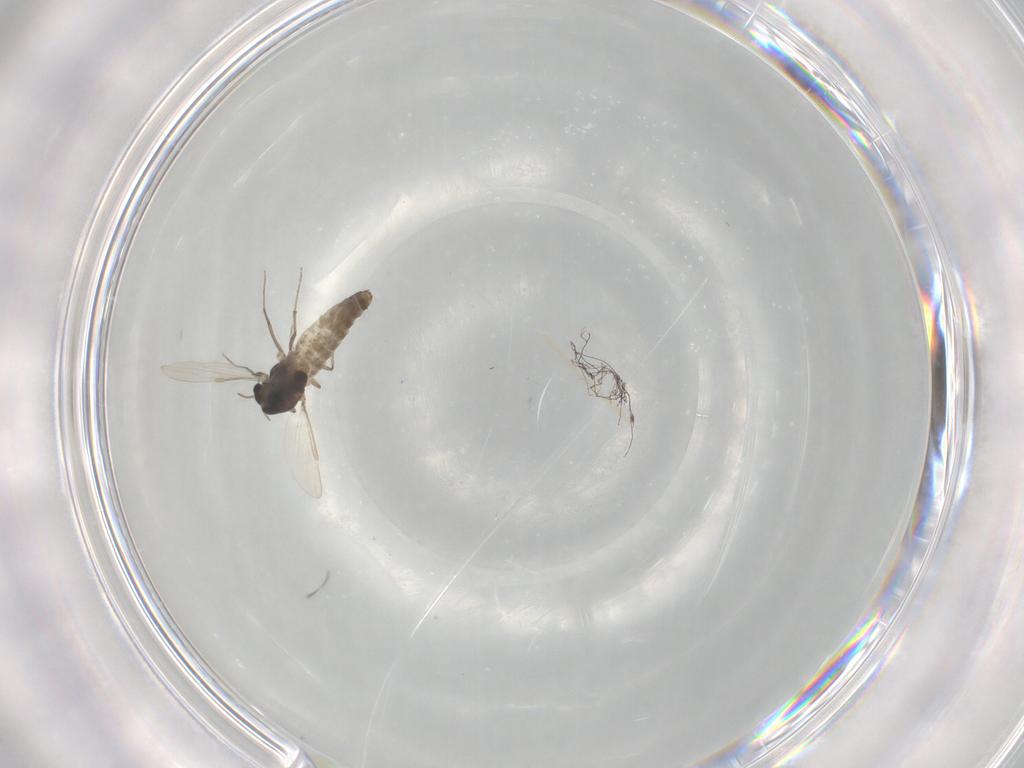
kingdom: Animalia
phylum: Arthropoda
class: Insecta
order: Diptera
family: Chironomidae
